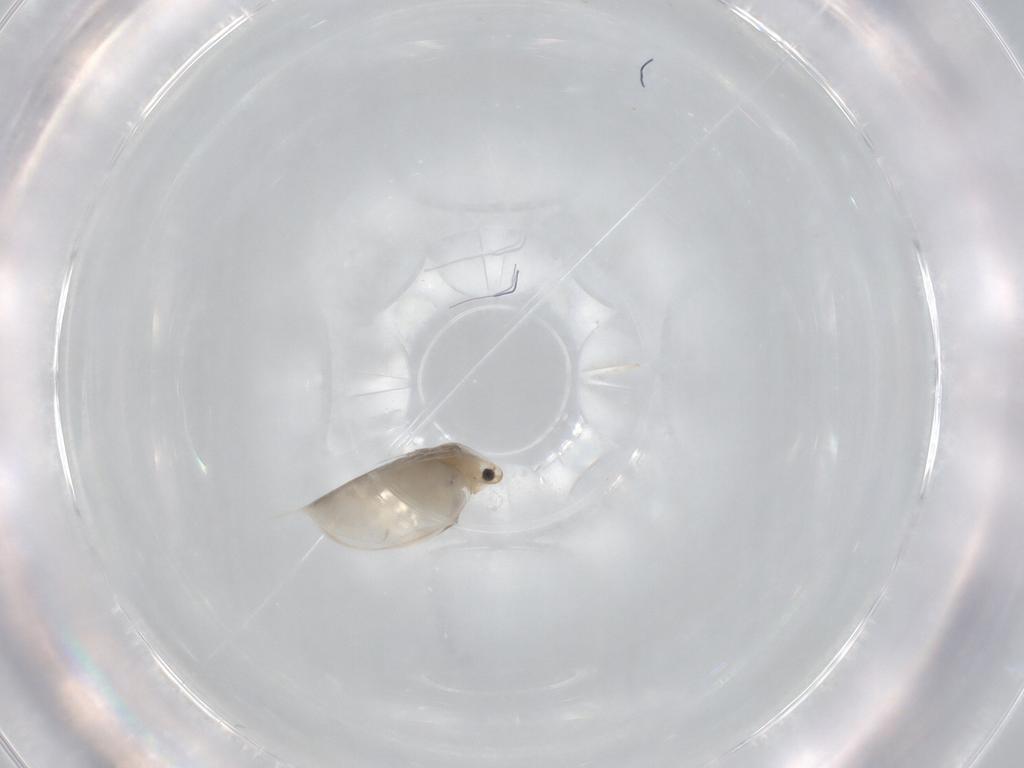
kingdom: Animalia
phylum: Arthropoda
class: Branchiopoda
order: Diplostraca
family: Daphniidae
